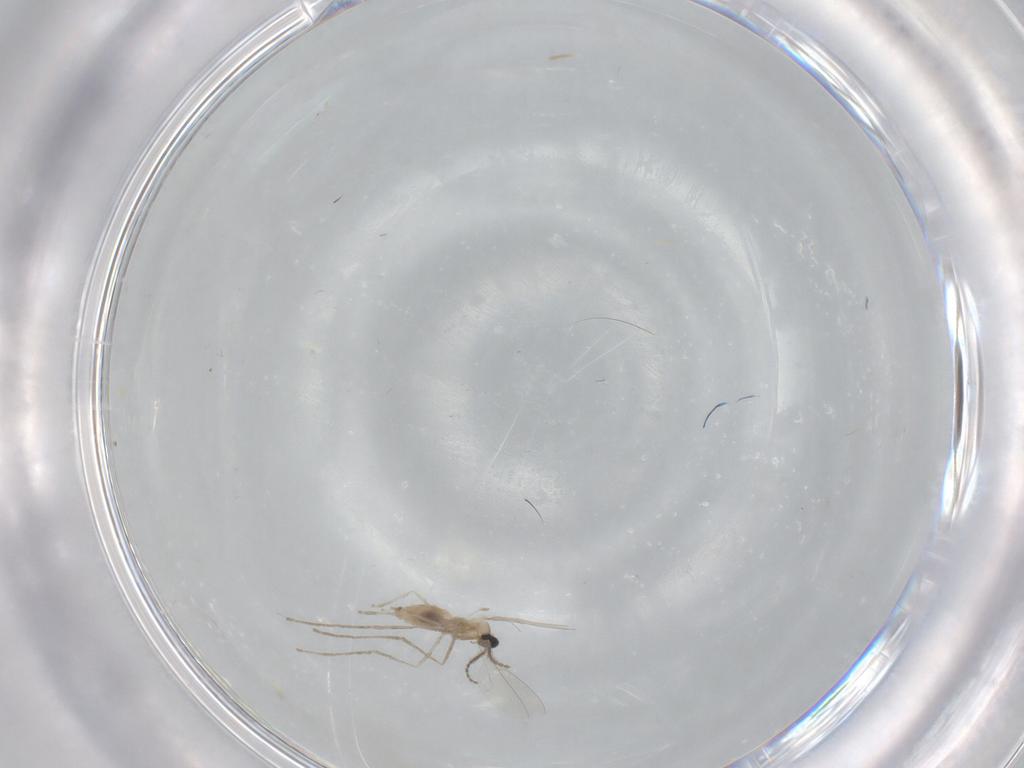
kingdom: Animalia
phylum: Arthropoda
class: Insecta
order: Diptera
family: Cecidomyiidae
